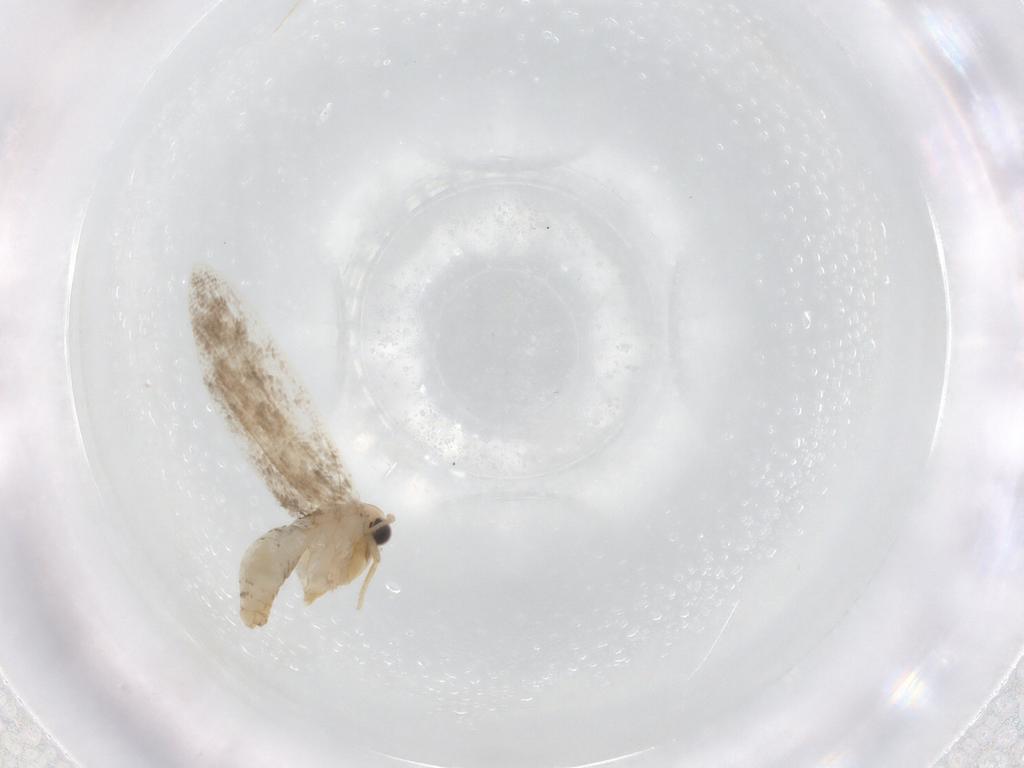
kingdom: Animalia
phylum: Arthropoda
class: Insecta
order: Lepidoptera
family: Psychidae
